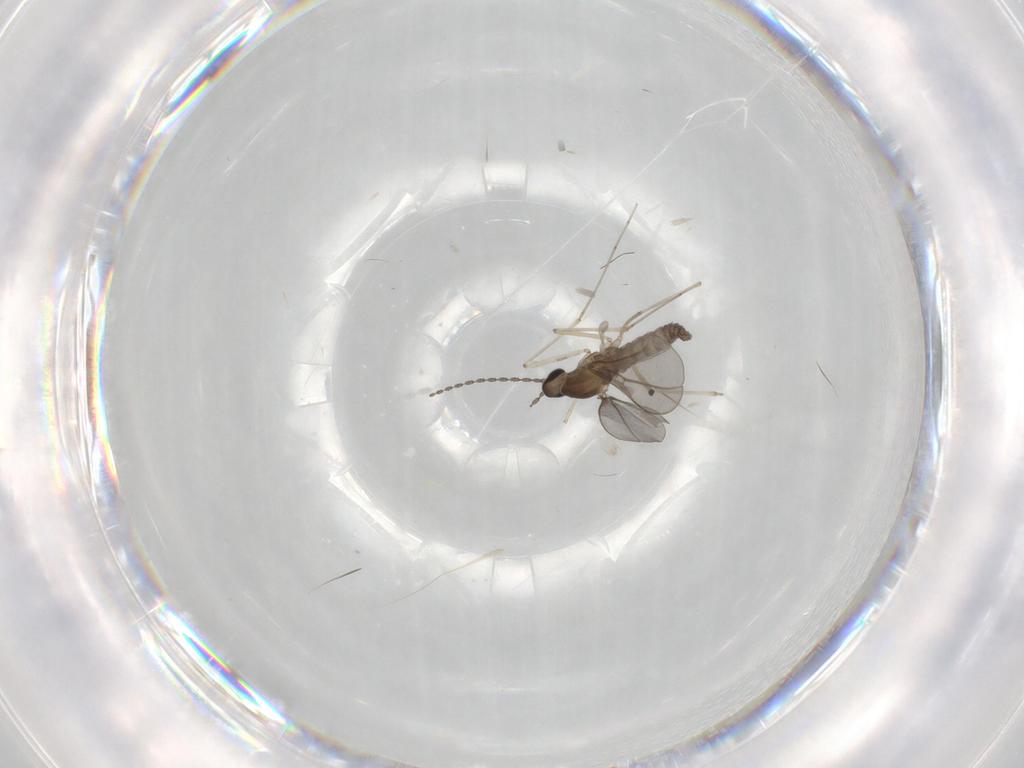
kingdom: Animalia
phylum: Arthropoda
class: Insecta
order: Diptera
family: Cecidomyiidae
